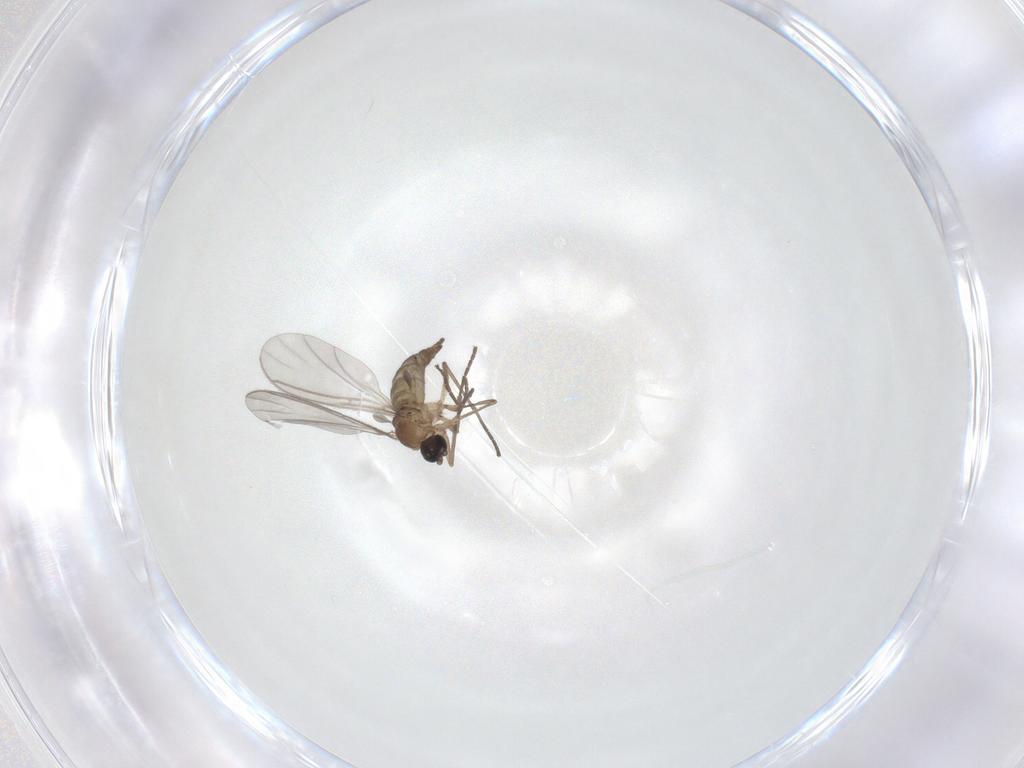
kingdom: Animalia
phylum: Arthropoda
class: Insecta
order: Diptera
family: Sciaridae
